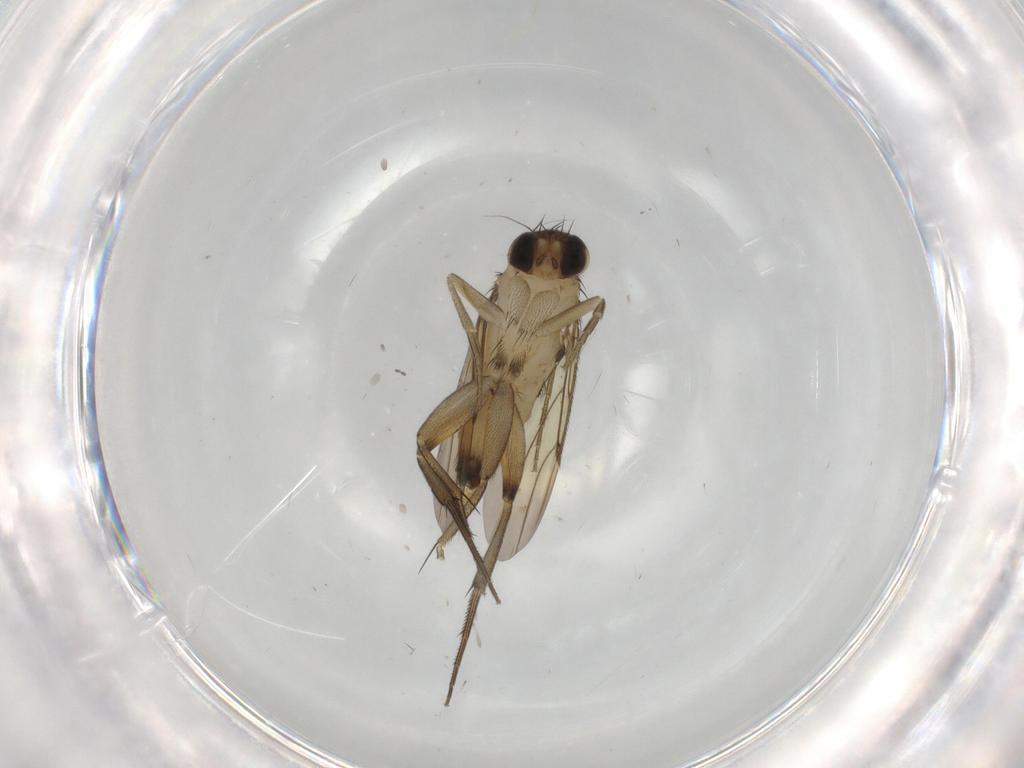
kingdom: Animalia
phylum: Arthropoda
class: Insecta
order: Diptera
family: Phoridae
